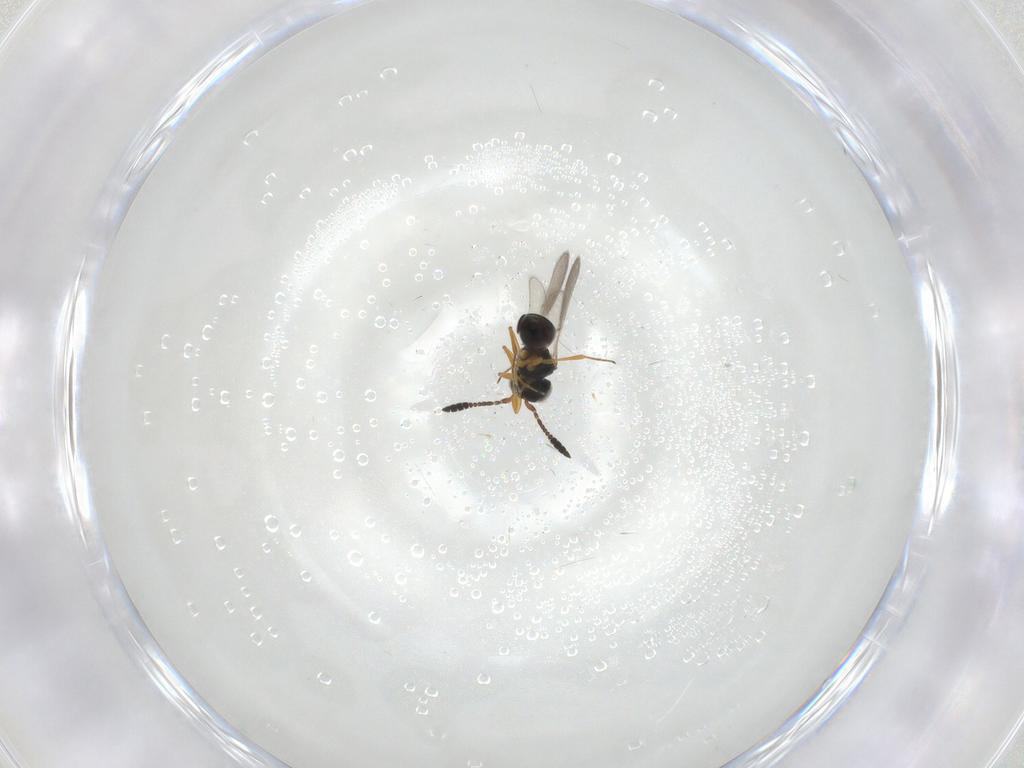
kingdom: Animalia
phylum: Arthropoda
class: Insecta
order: Hymenoptera
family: Scelionidae
